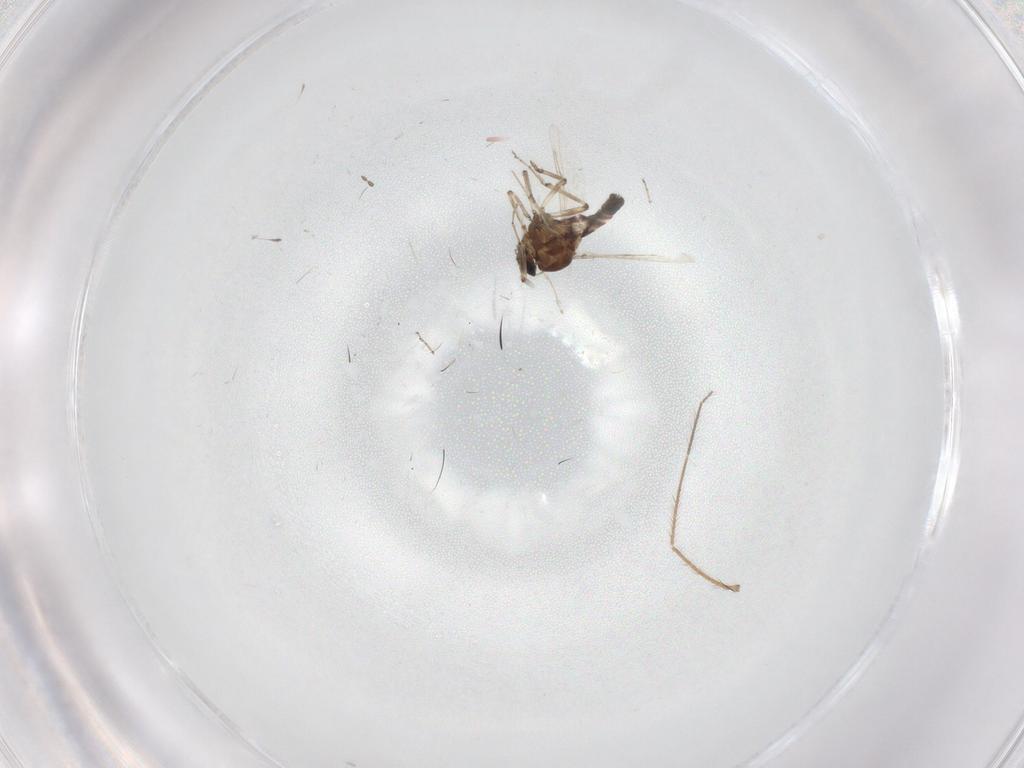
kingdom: Animalia
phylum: Arthropoda
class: Insecta
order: Diptera
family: Ceratopogonidae
